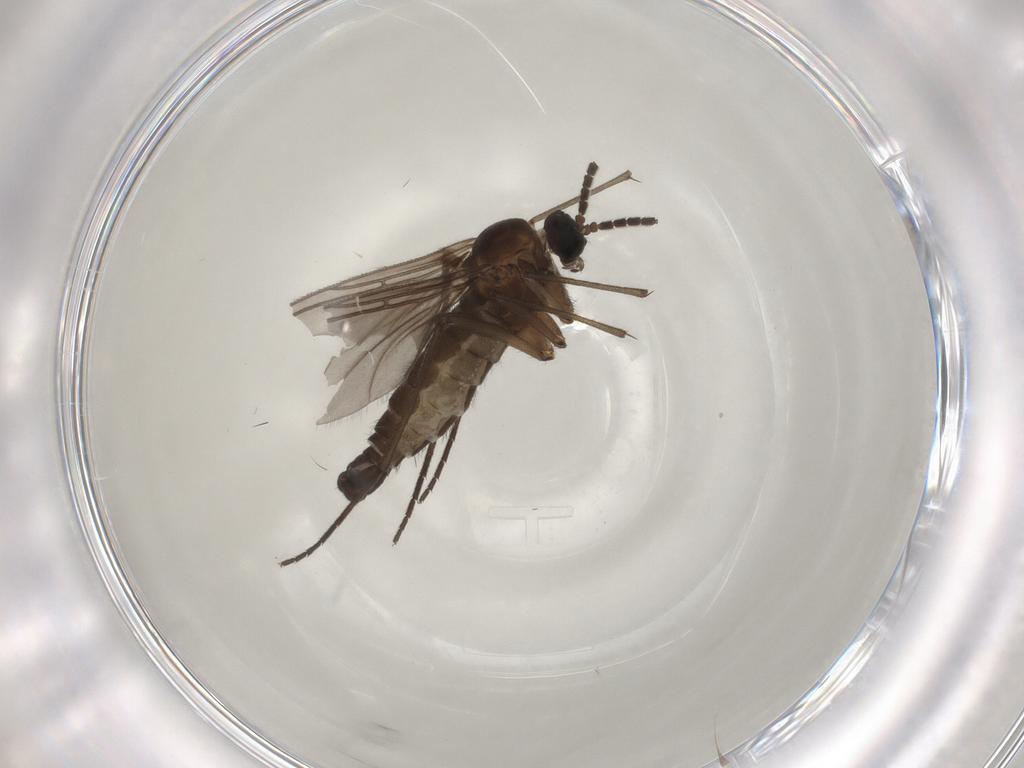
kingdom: Animalia
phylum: Arthropoda
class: Insecta
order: Diptera
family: Sciaridae
